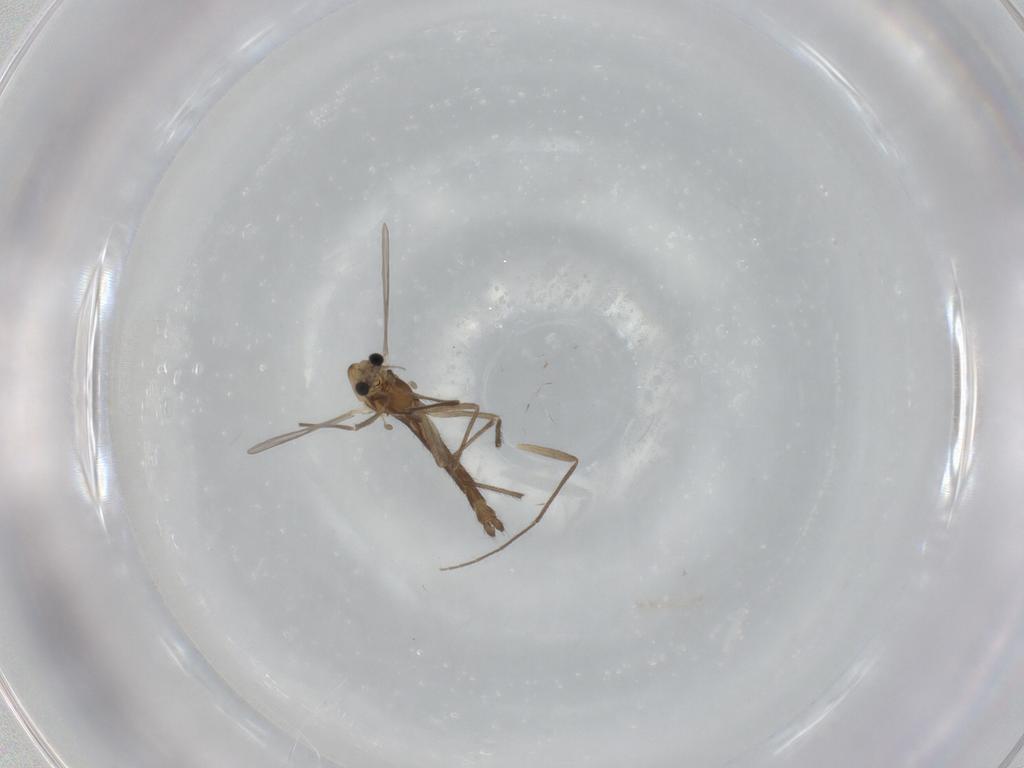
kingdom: Animalia
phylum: Arthropoda
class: Insecta
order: Diptera
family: Chironomidae
